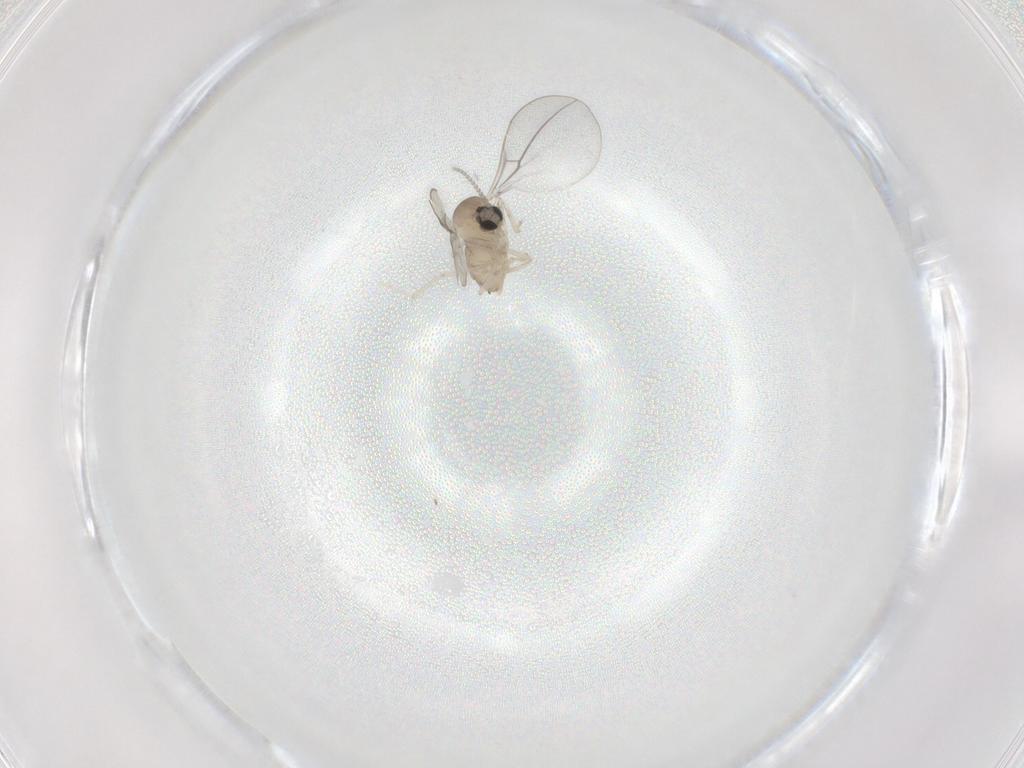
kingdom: Animalia
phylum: Arthropoda
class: Insecta
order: Diptera
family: Cecidomyiidae
